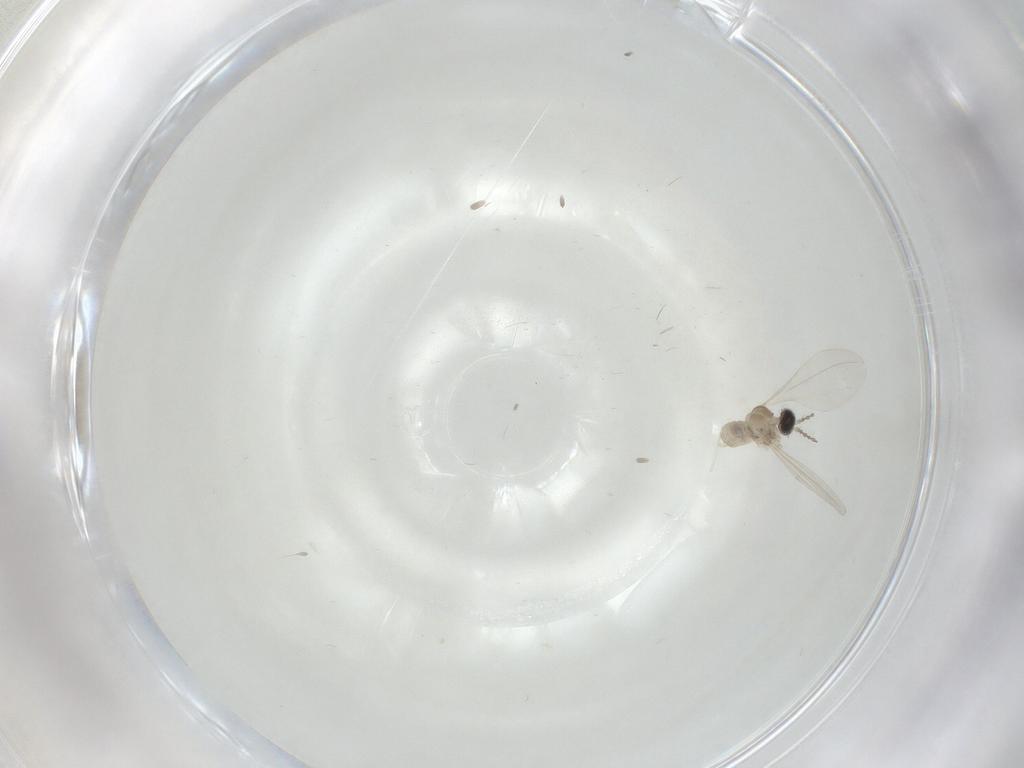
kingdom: Animalia
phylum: Arthropoda
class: Insecta
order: Diptera
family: Cecidomyiidae
